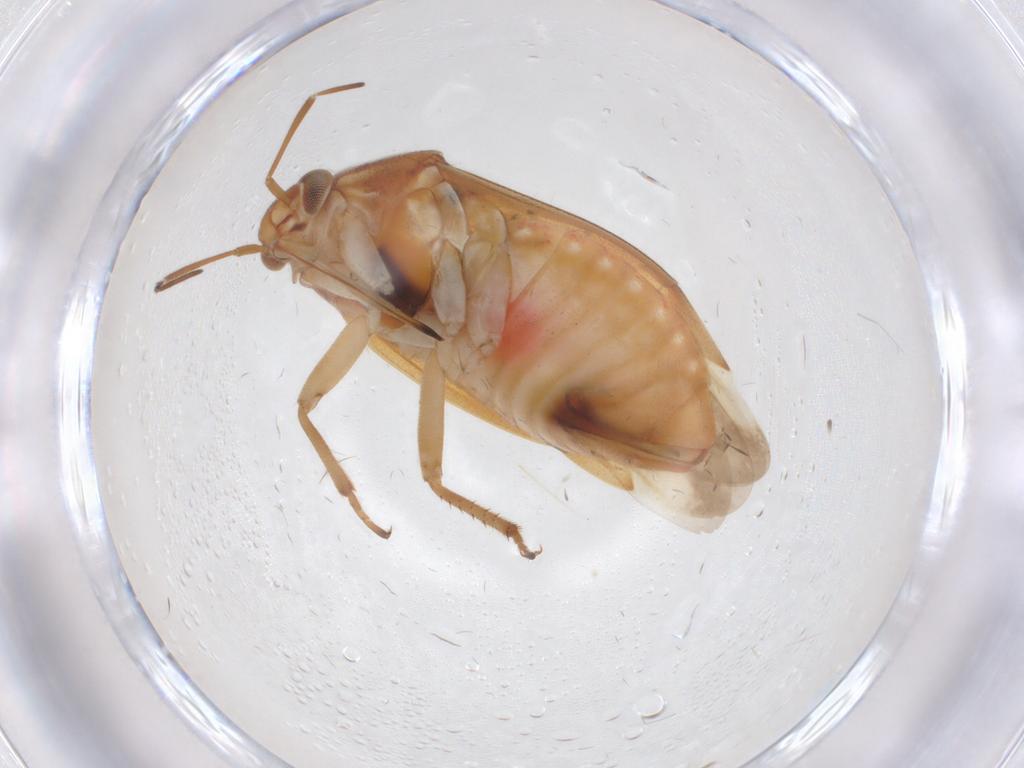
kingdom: Animalia
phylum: Arthropoda
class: Insecta
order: Hemiptera
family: Miridae
